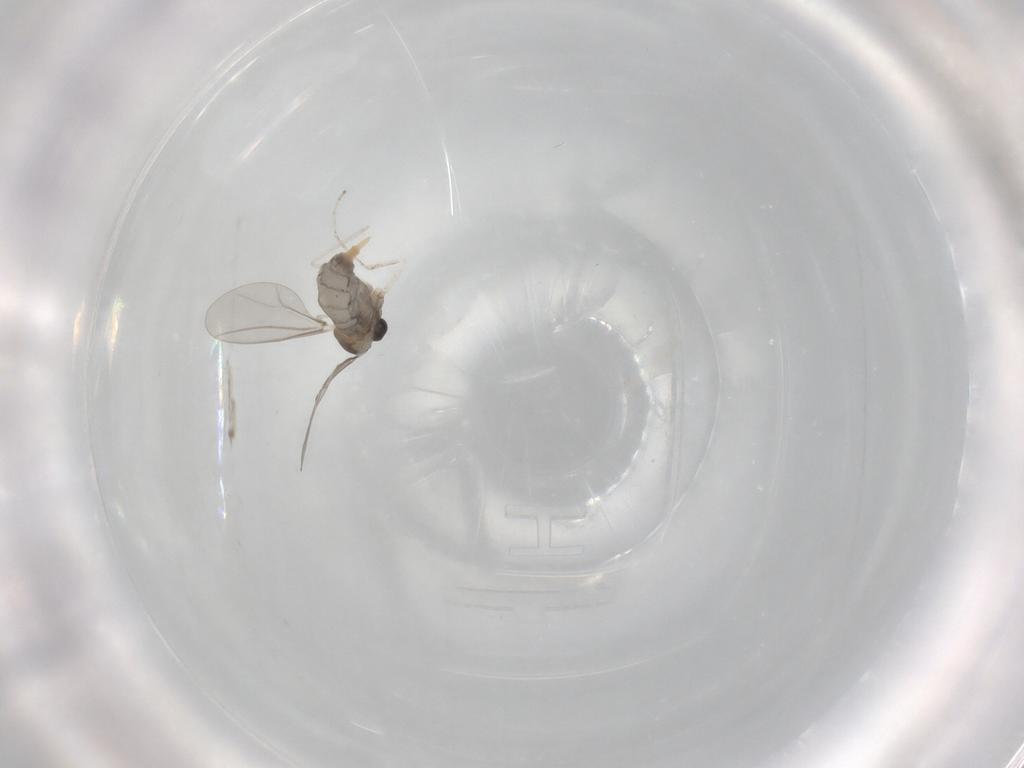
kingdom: Animalia
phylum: Arthropoda
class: Insecta
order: Diptera
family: Cecidomyiidae
